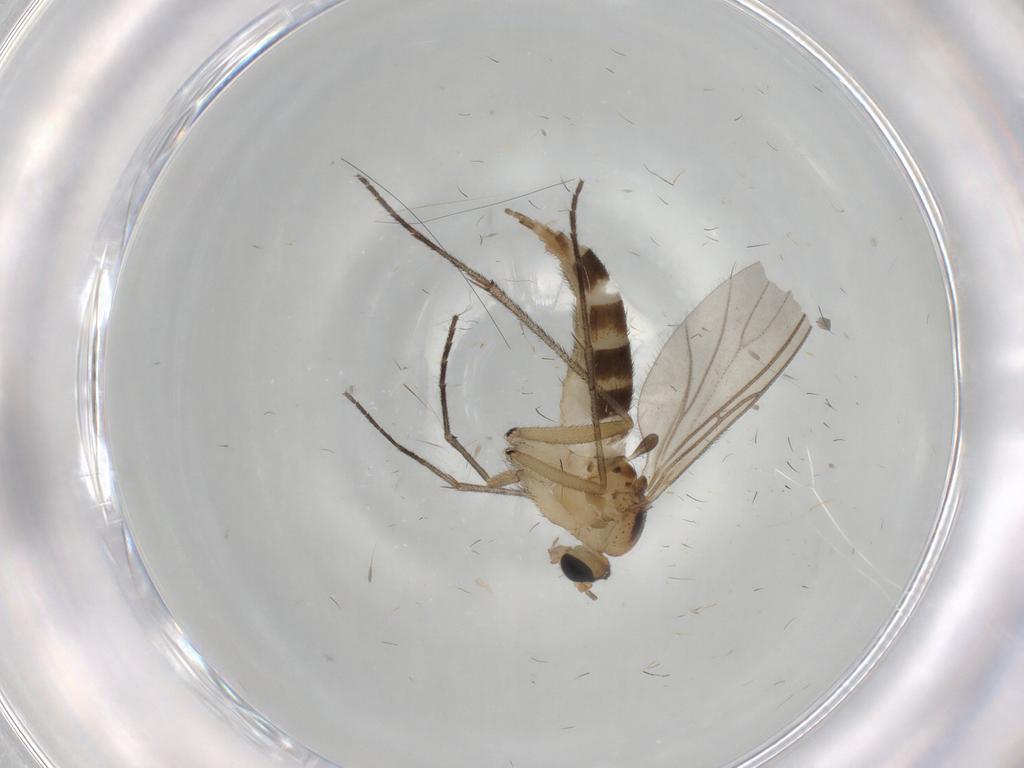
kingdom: Animalia
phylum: Arthropoda
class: Insecta
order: Diptera
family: Sciaridae
